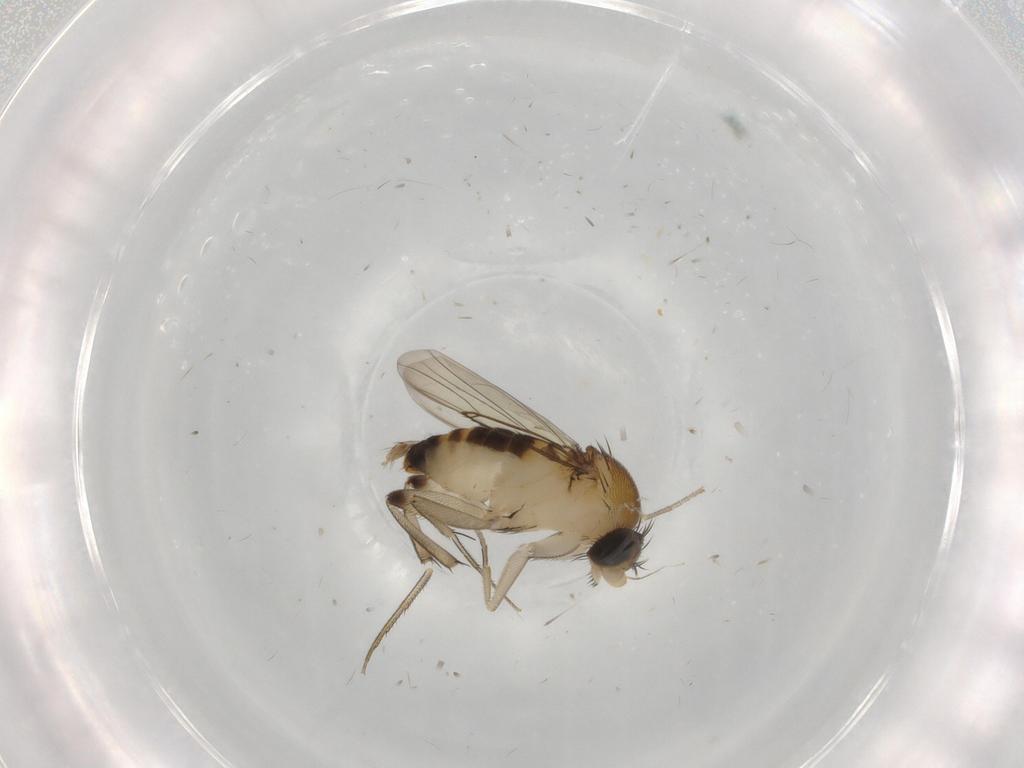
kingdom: Animalia
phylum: Arthropoda
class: Insecta
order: Diptera
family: Phoridae
